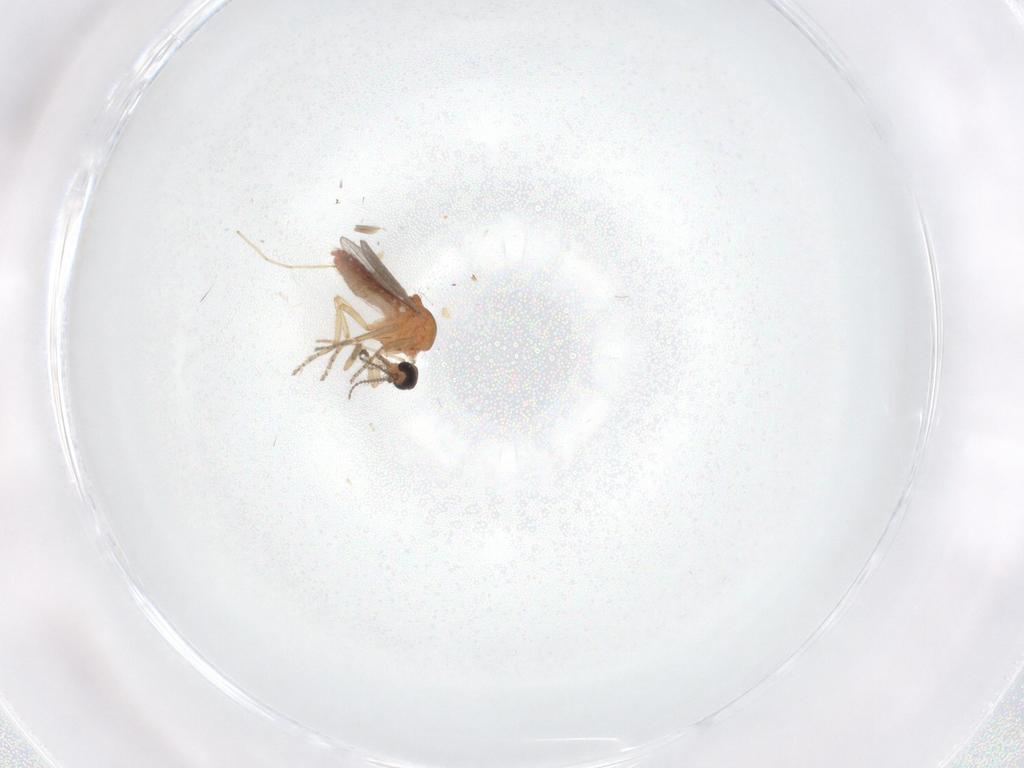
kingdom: Animalia
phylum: Arthropoda
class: Insecta
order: Diptera
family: Ceratopogonidae
